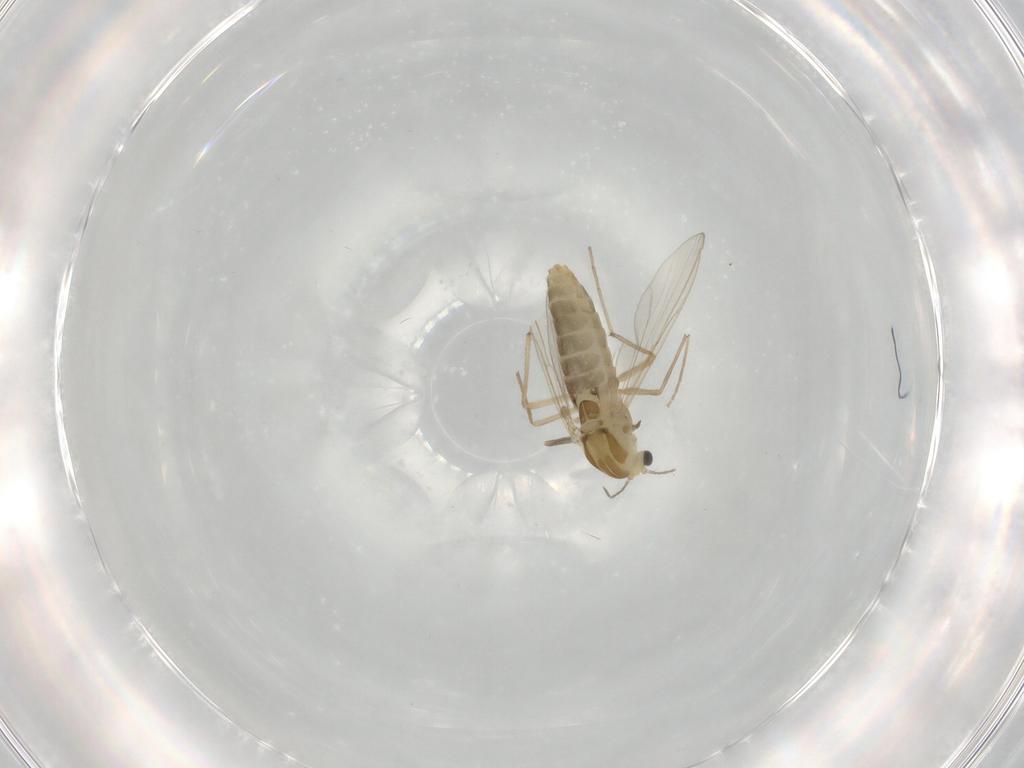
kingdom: Animalia
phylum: Arthropoda
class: Insecta
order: Diptera
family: Chironomidae
